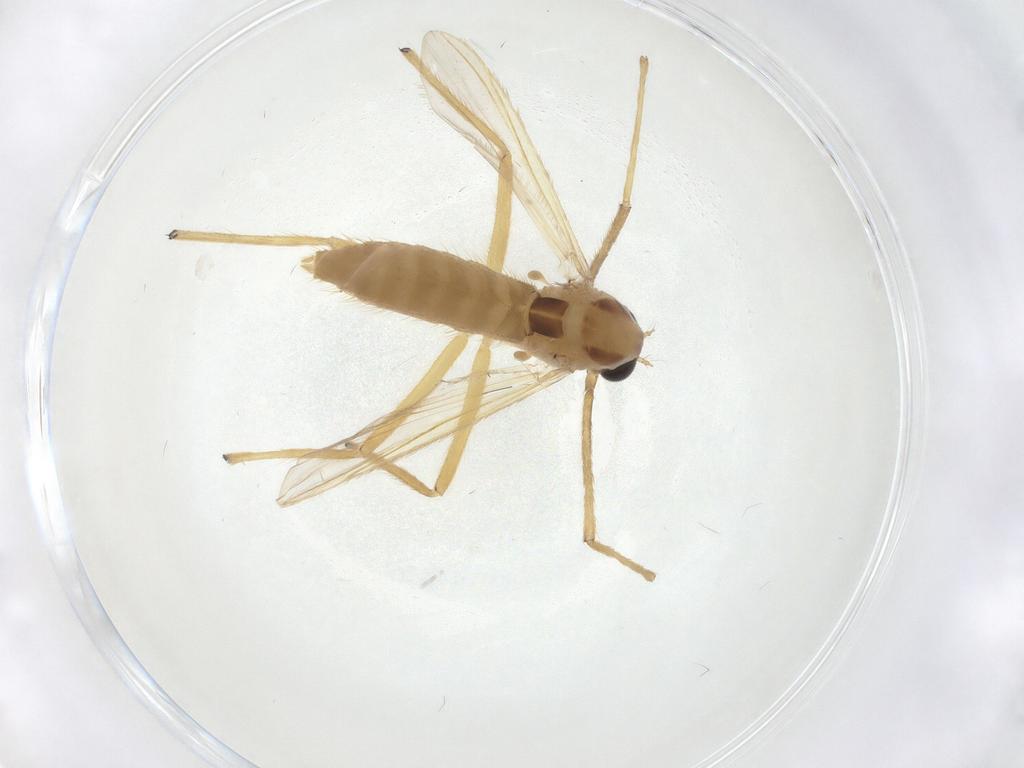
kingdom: Animalia
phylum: Arthropoda
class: Insecta
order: Diptera
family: Chironomidae
